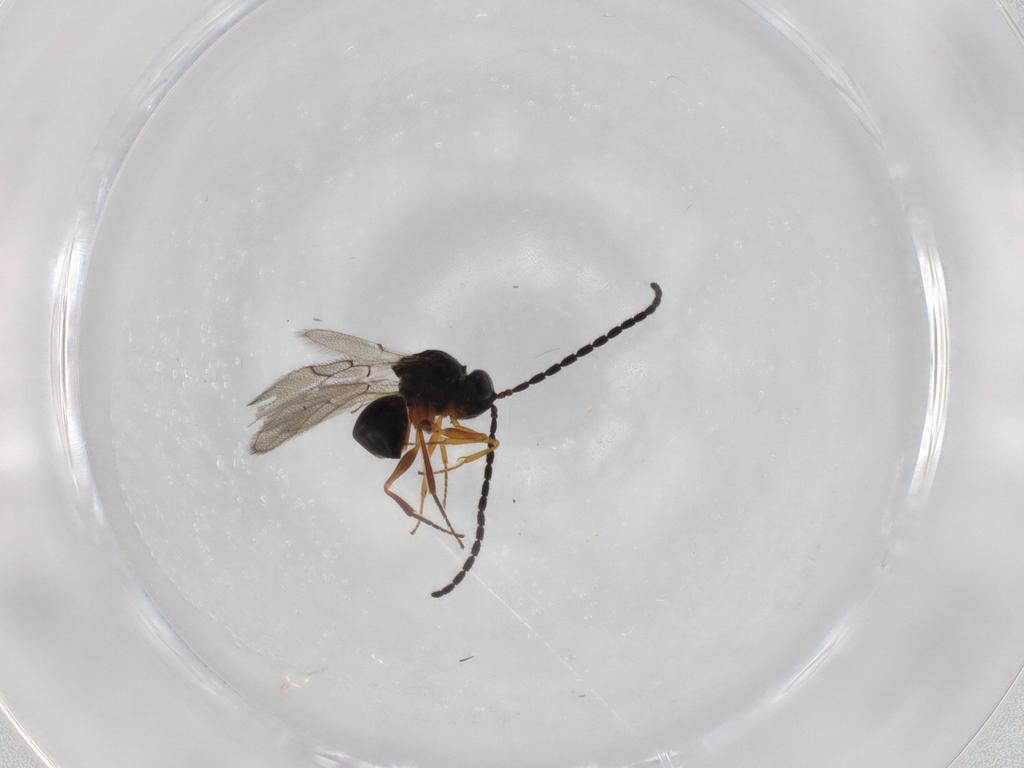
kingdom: Animalia
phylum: Arthropoda
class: Insecta
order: Hymenoptera
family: Figitidae
